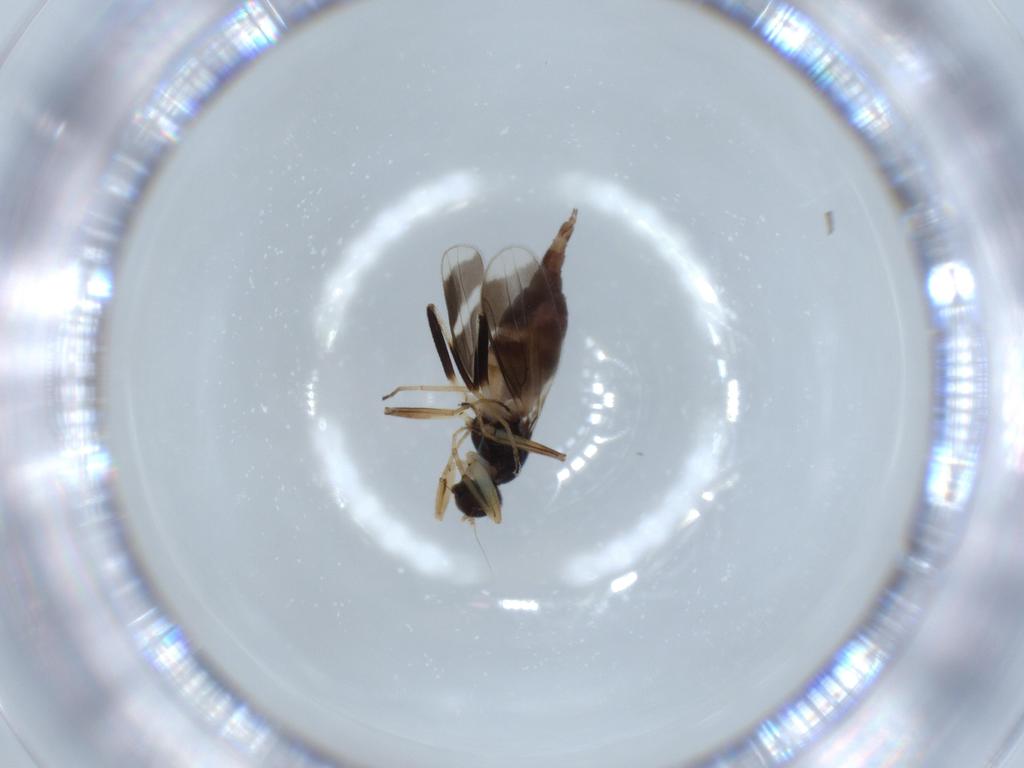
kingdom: Animalia
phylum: Arthropoda
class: Insecta
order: Diptera
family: Hybotidae
